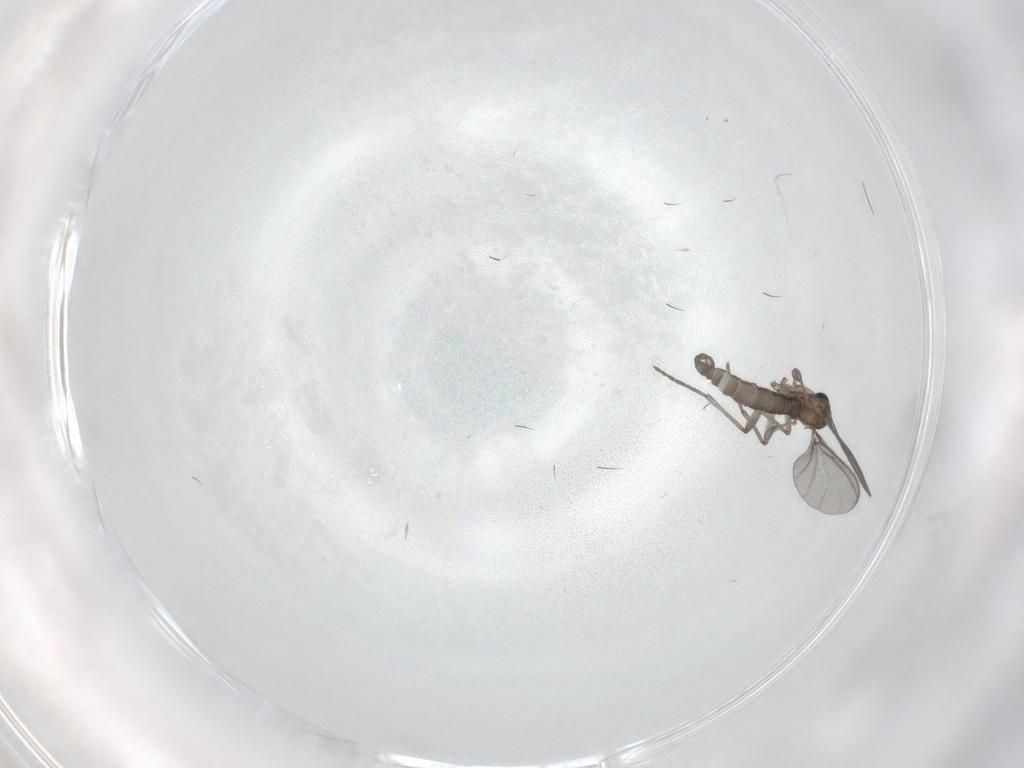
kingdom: Animalia
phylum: Arthropoda
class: Insecta
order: Diptera
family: Sciaridae
